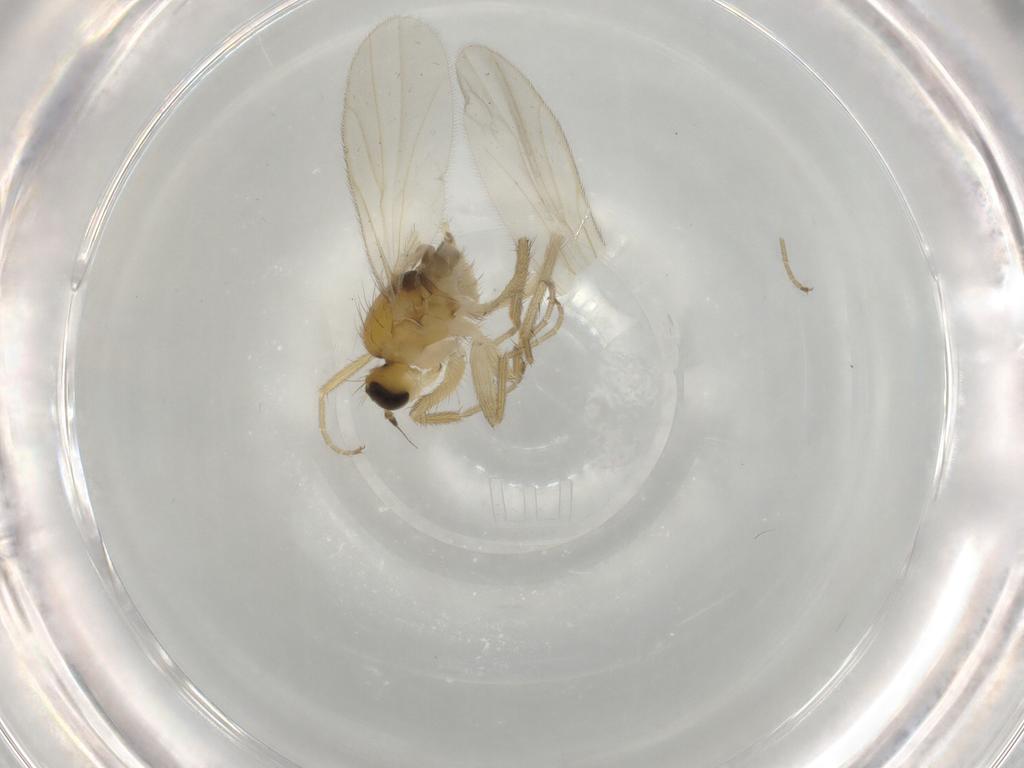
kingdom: Animalia
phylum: Arthropoda
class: Insecta
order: Diptera
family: Hybotidae
